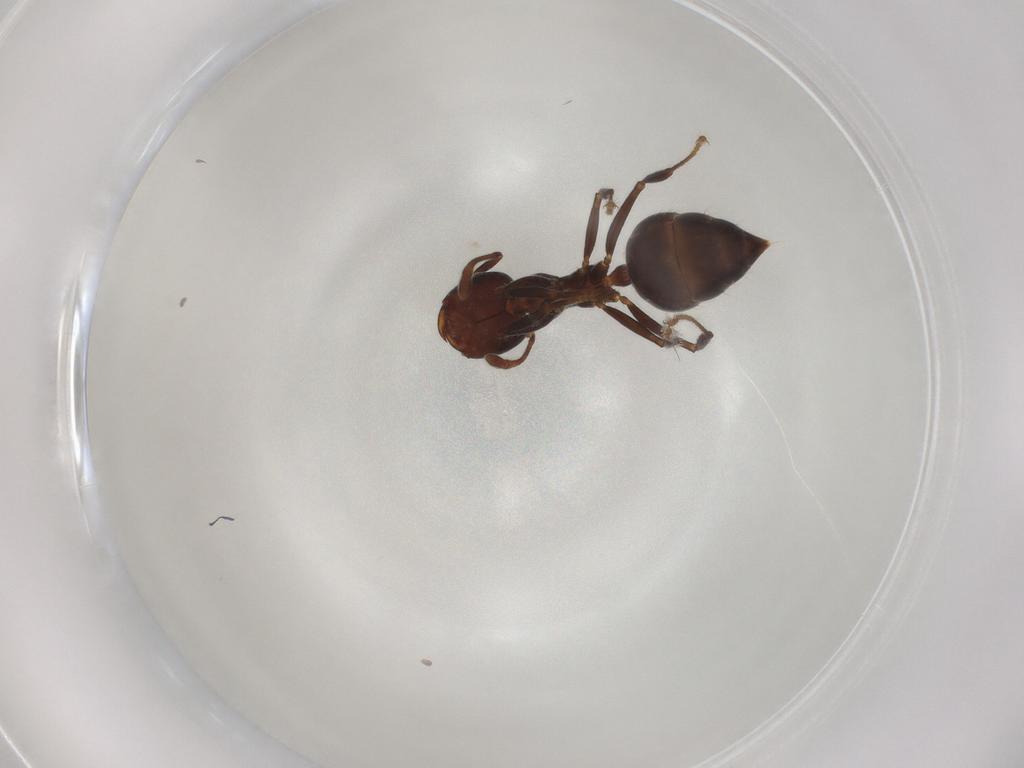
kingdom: Animalia
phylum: Arthropoda
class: Insecta
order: Hymenoptera
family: Formicidae
